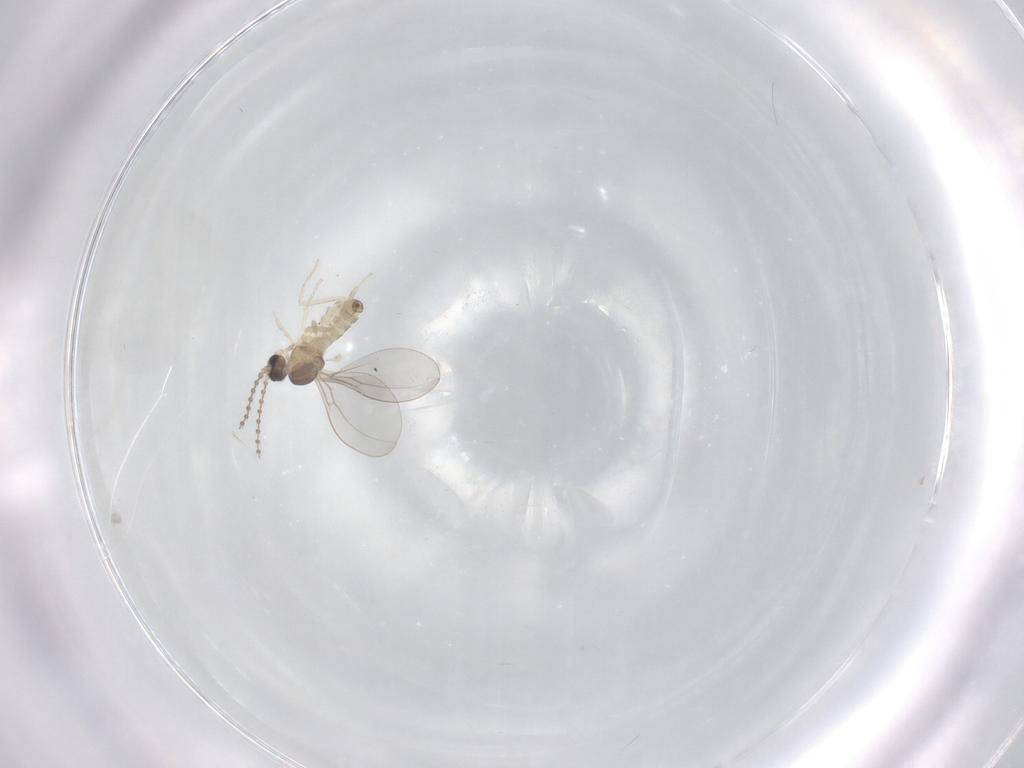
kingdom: Animalia
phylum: Arthropoda
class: Insecta
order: Diptera
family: Cecidomyiidae
